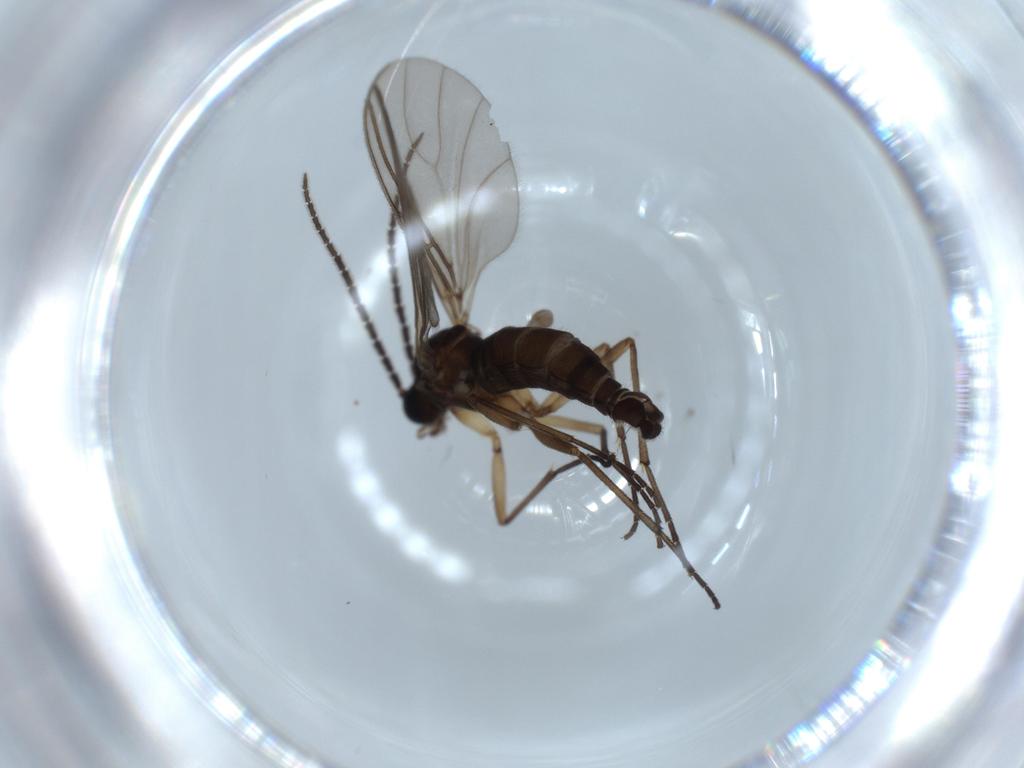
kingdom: Animalia
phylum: Arthropoda
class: Insecta
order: Diptera
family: Sciaridae
